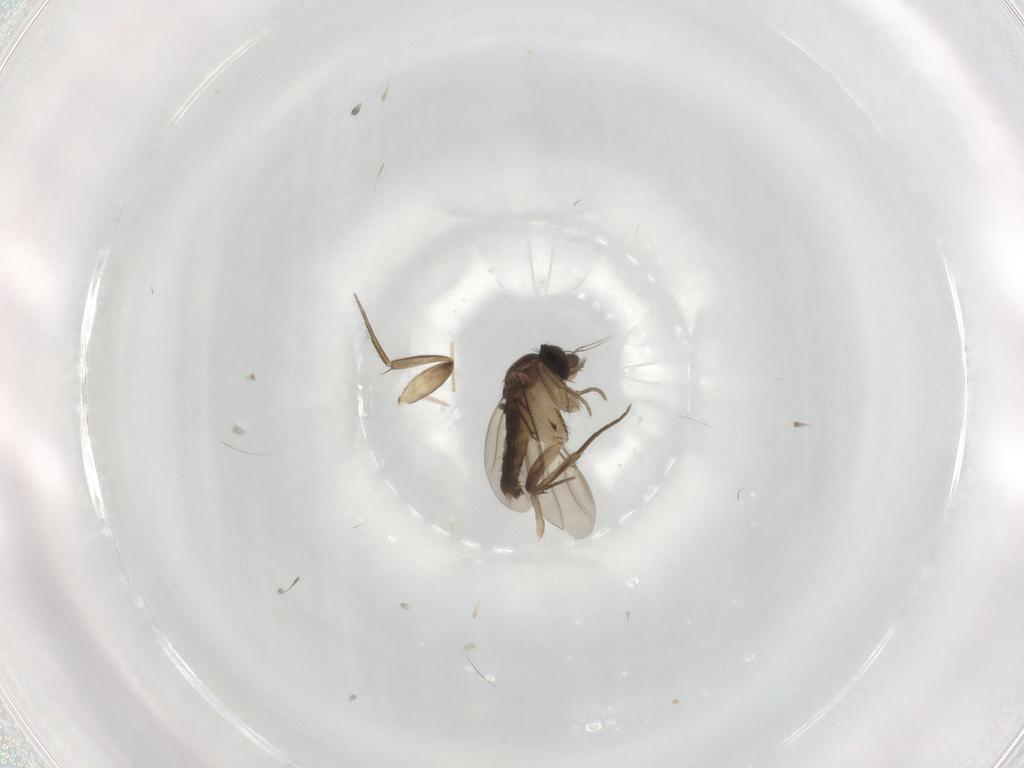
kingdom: Animalia
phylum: Arthropoda
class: Insecta
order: Diptera
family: Phoridae
